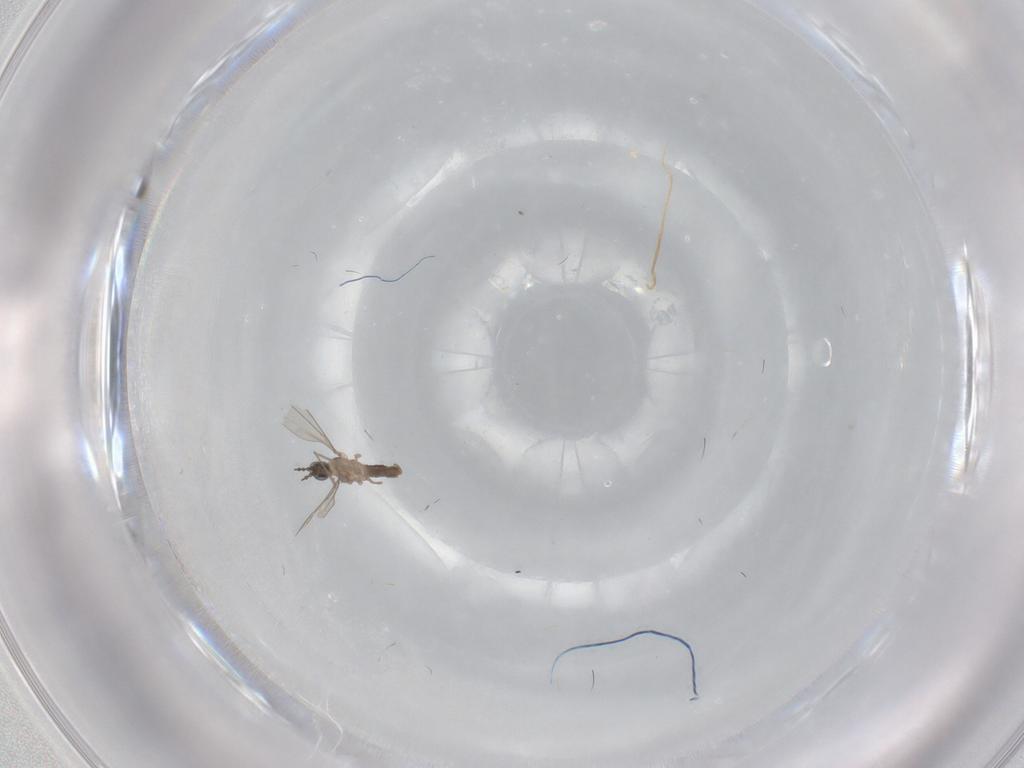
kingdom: Animalia
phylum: Arthropoda
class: Insecta
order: Diptera
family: Cecidomyiidae
